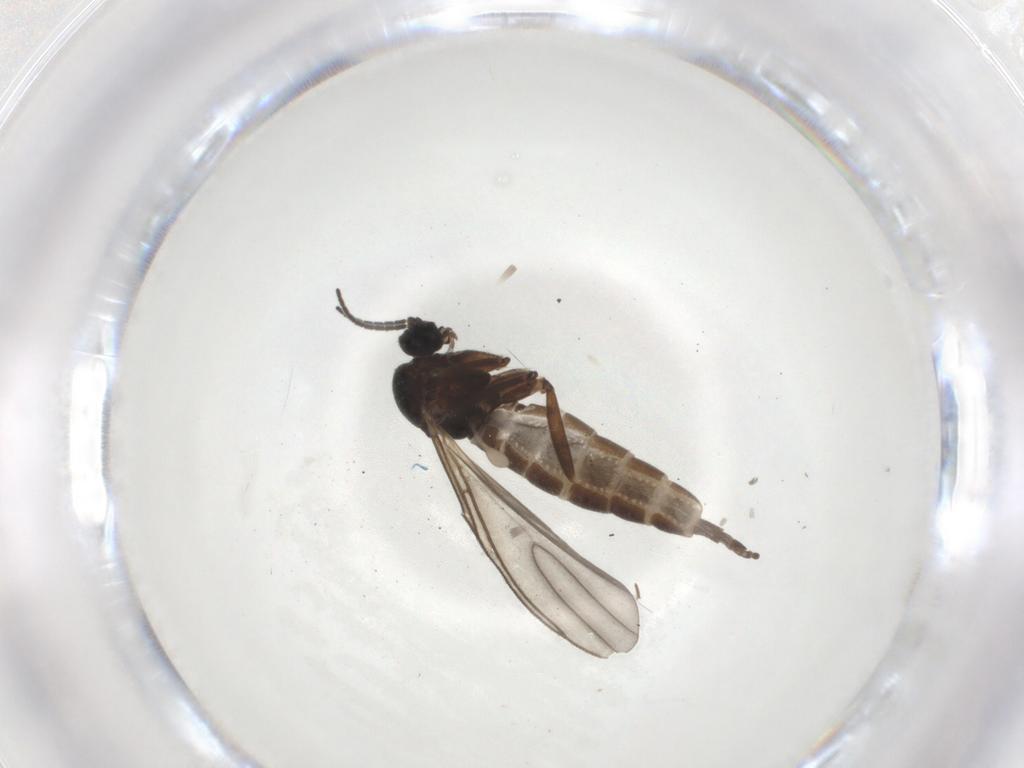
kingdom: Animalia
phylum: Arthropoda
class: Insecta
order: Diptera
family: Sciaridae
